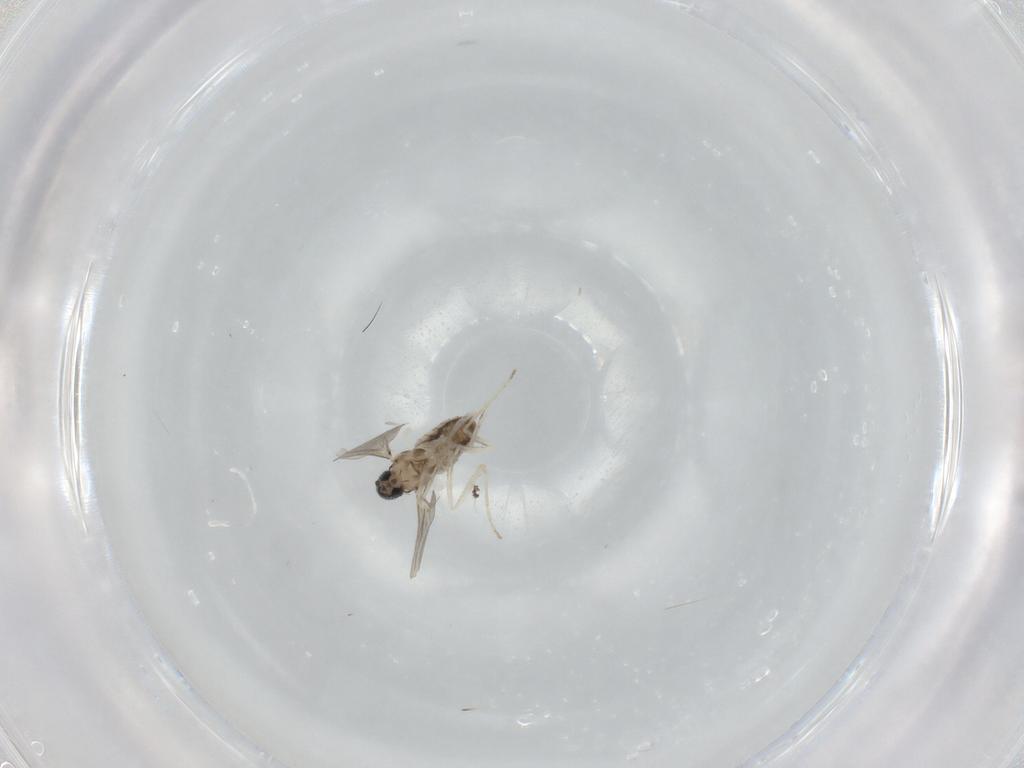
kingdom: Animalia
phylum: Arthropoda
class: Insecta
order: Diptera
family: Cecidomyiidae
